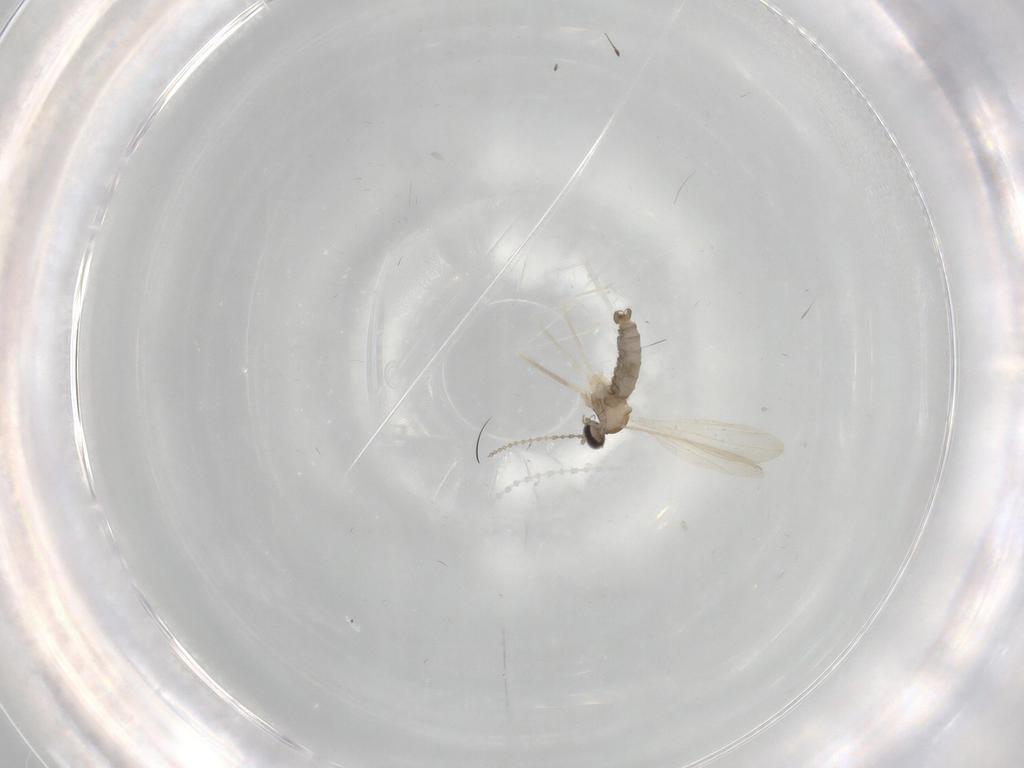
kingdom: Animalia
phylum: Arthropoda
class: Insecta
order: Diptera
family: Cecidomyiidae
